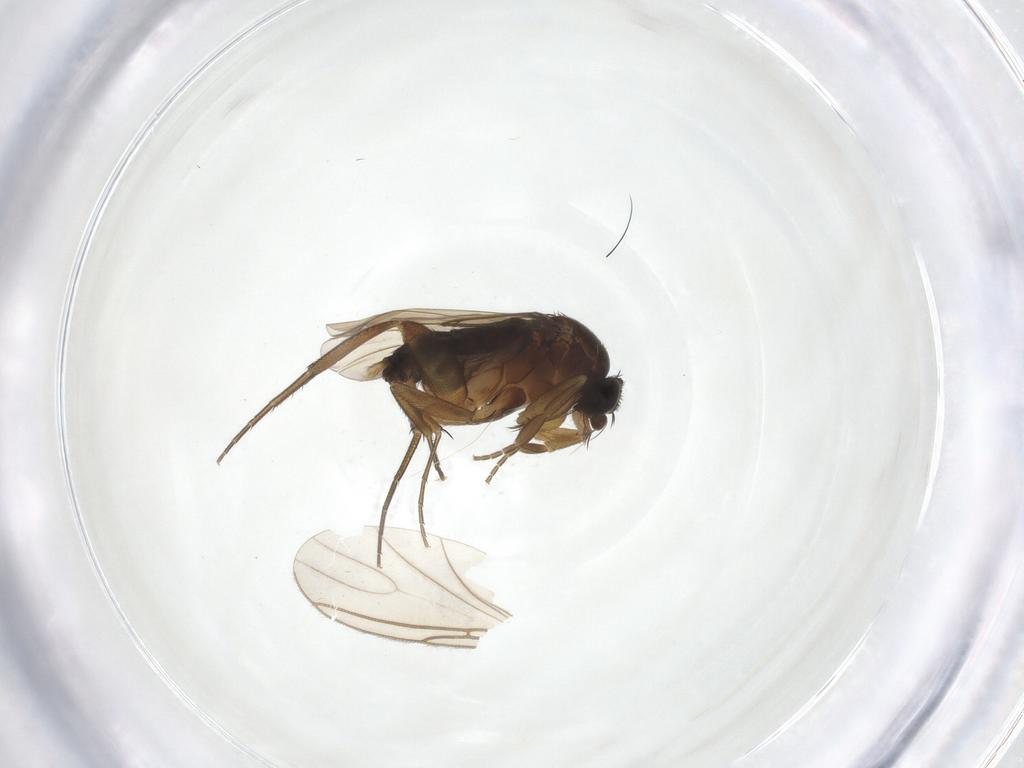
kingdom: Animalia
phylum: Arthropoda
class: Insecta
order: Diptera
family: Phoridae
